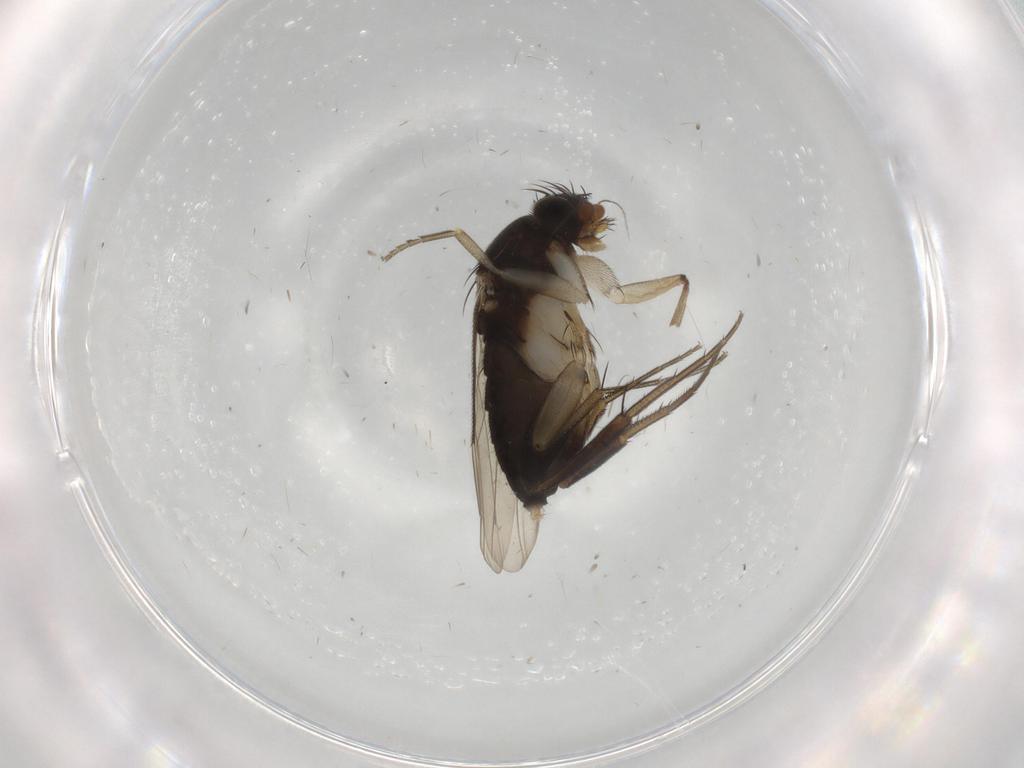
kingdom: Animalia
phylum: Arthropoda
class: Insecta
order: Diptera
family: Phoridae
